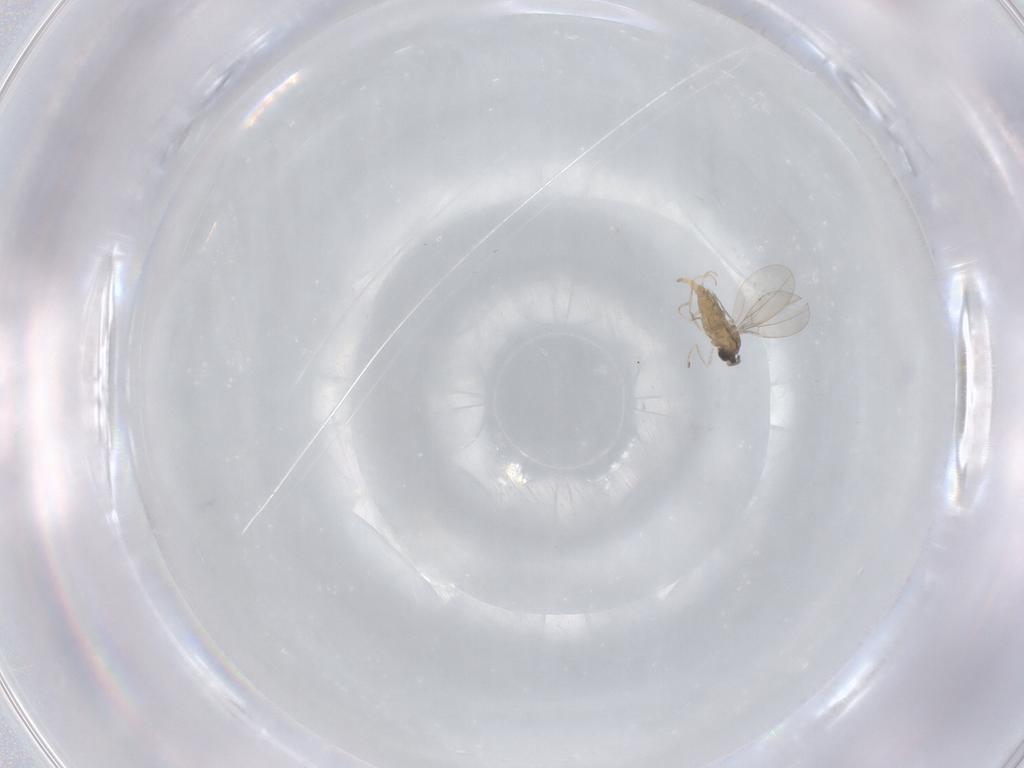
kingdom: Animalia
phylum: Arthropoda
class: Insecta
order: Diptera
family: Cecidomyiidae
